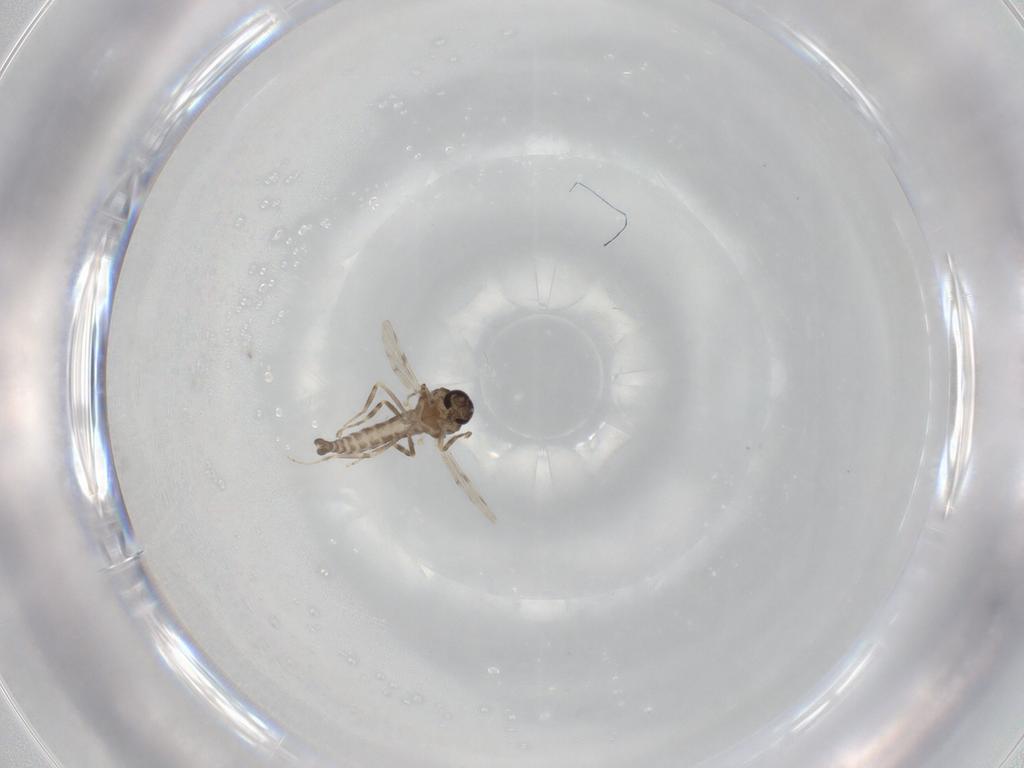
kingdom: Animalia
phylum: Arthropoda
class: Insecta
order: Diptera
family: Ceratopogonidae
